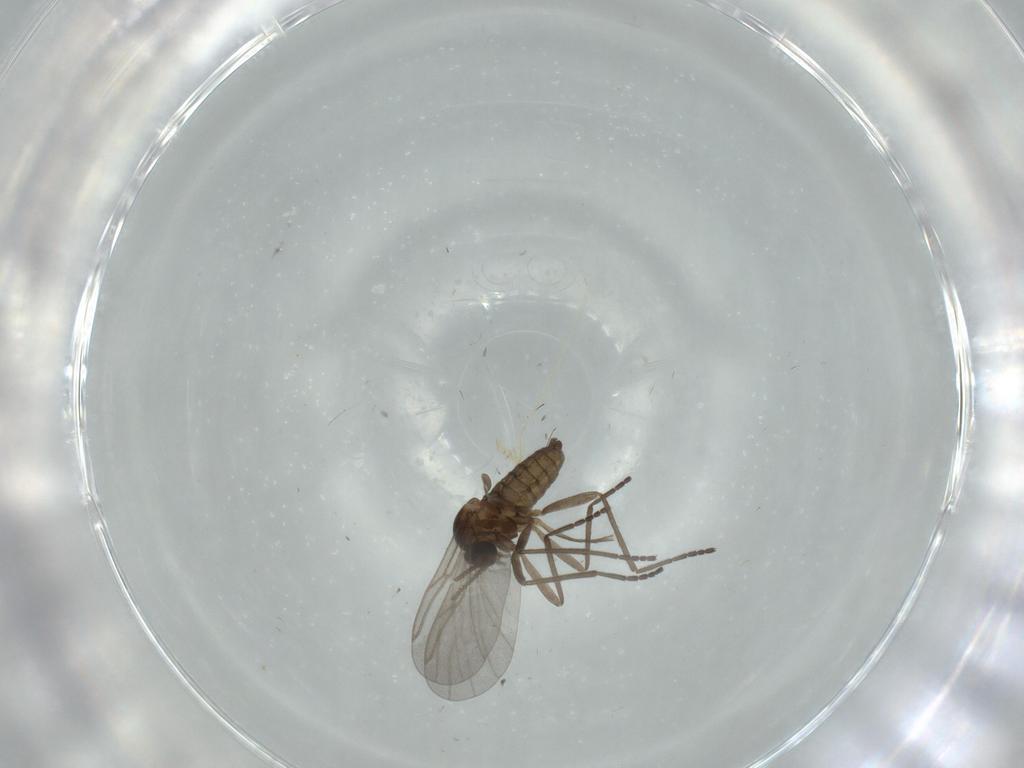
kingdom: Animalia
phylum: Arthropoda
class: Insecta
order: Diptera
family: Cecidomyiidae
